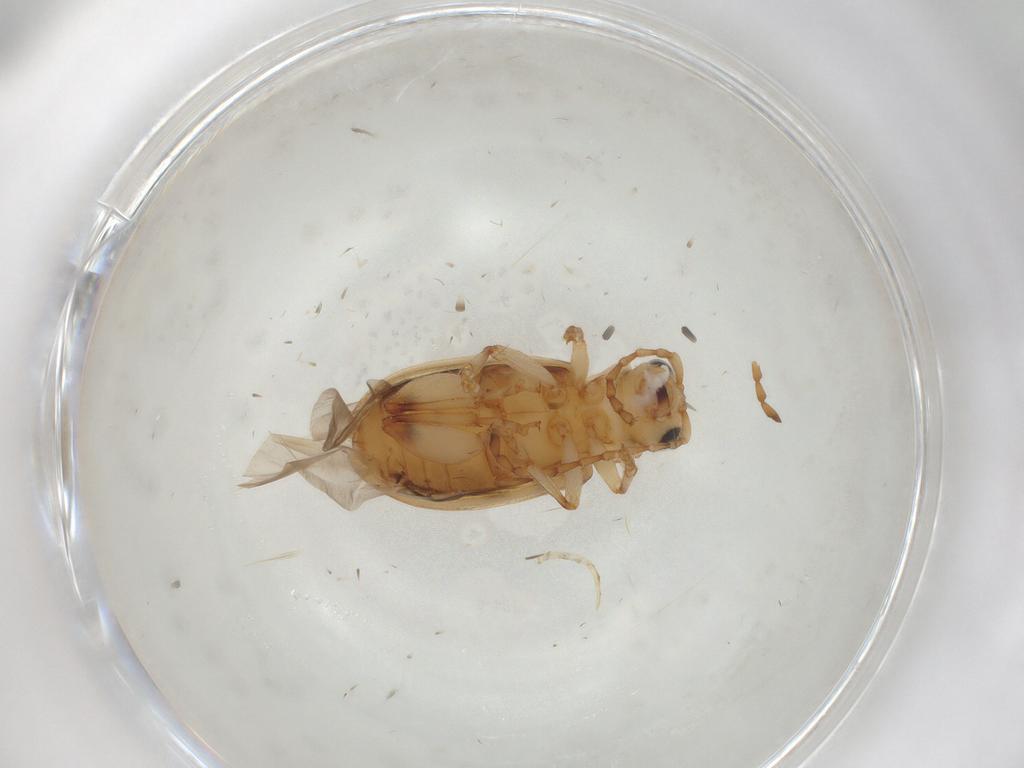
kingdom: Animalia
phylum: Arthropoda
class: Insecta
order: Coleoptera
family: Chrysomelidae
